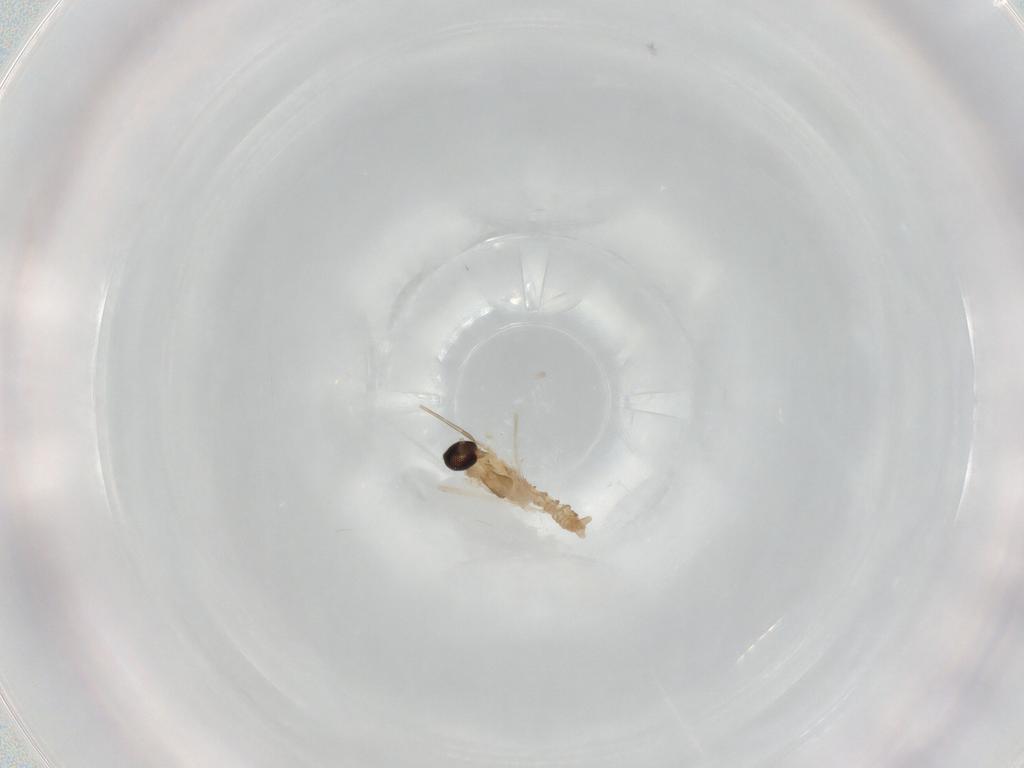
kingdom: Animalia
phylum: Arthropoda
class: Insecta
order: Diptera
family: Cecidomyiidae
